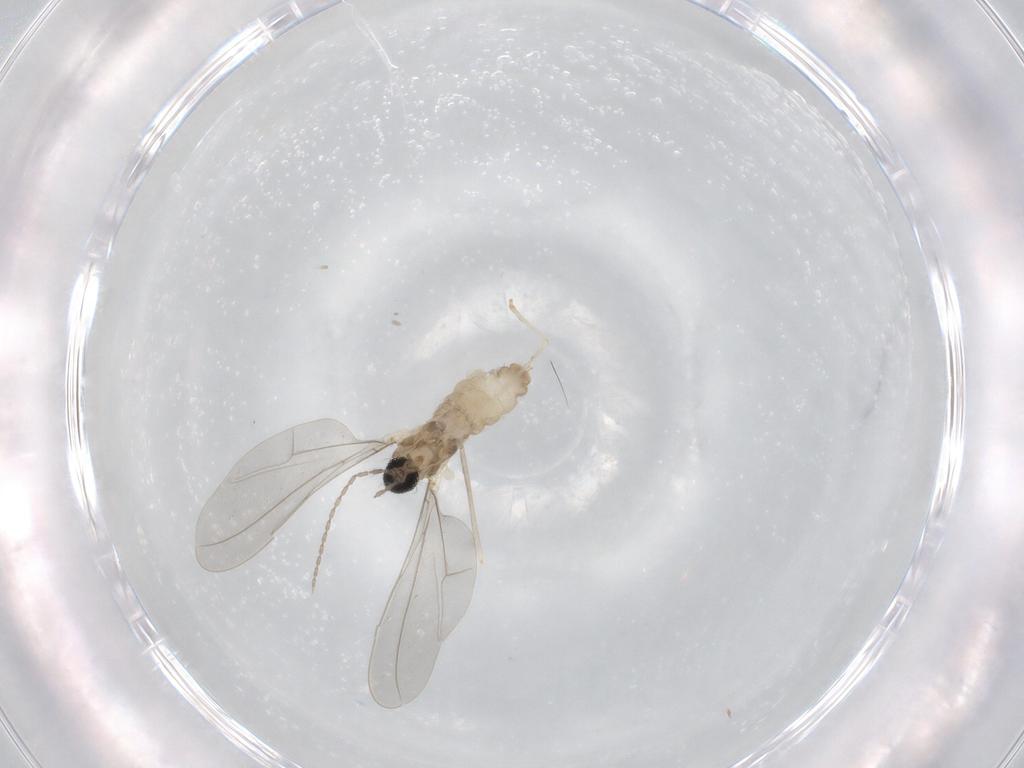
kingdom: Animalia
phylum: Arthropoda
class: Insecta
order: Diptera
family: Cecidomyiidae
